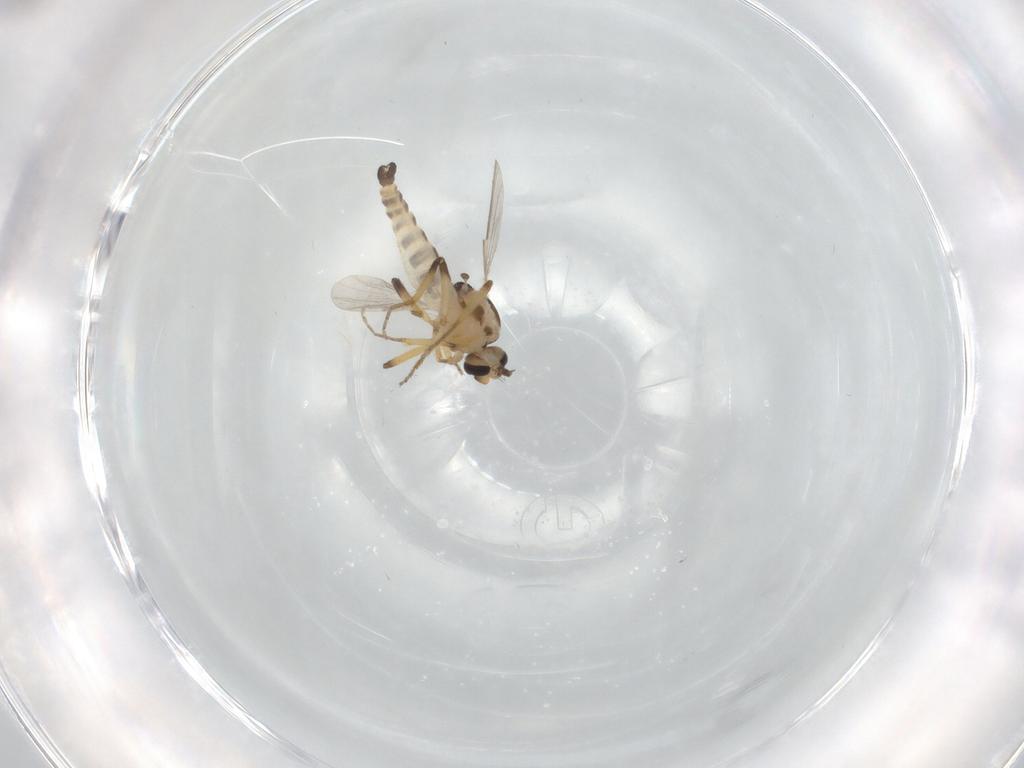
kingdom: Animalia
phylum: Arthropoda
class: Insecta
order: Diptera
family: Ceratopogonidae
